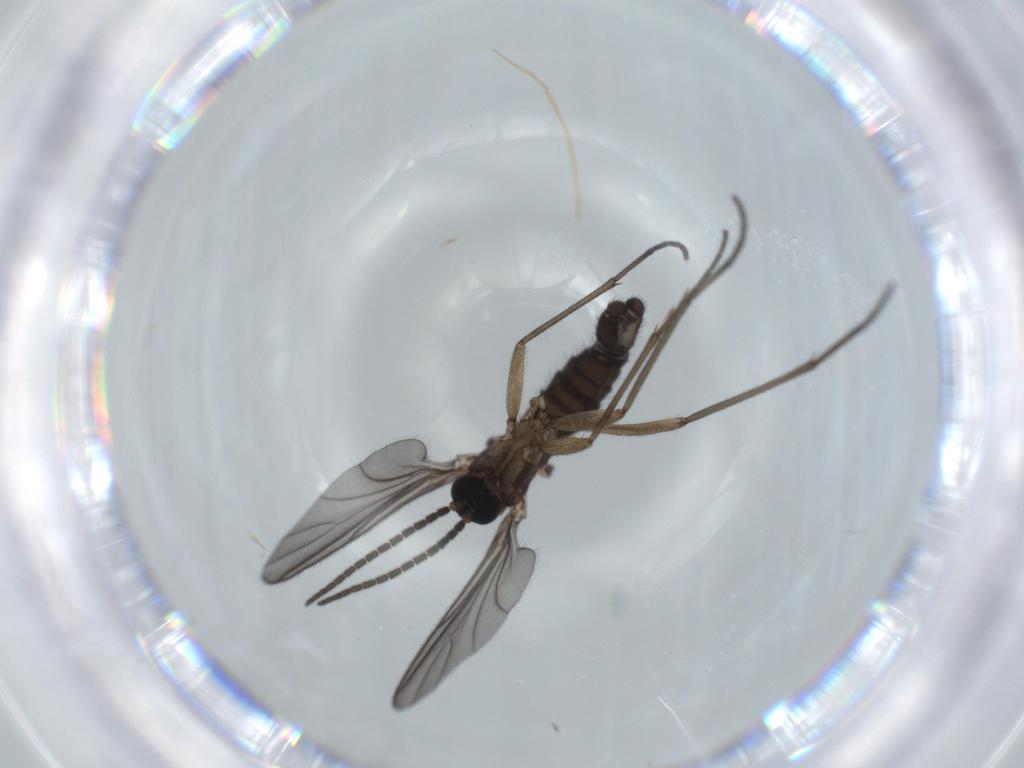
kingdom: Animalia
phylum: Arthropoda
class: Insecta
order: Diptera
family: Sciaridae
